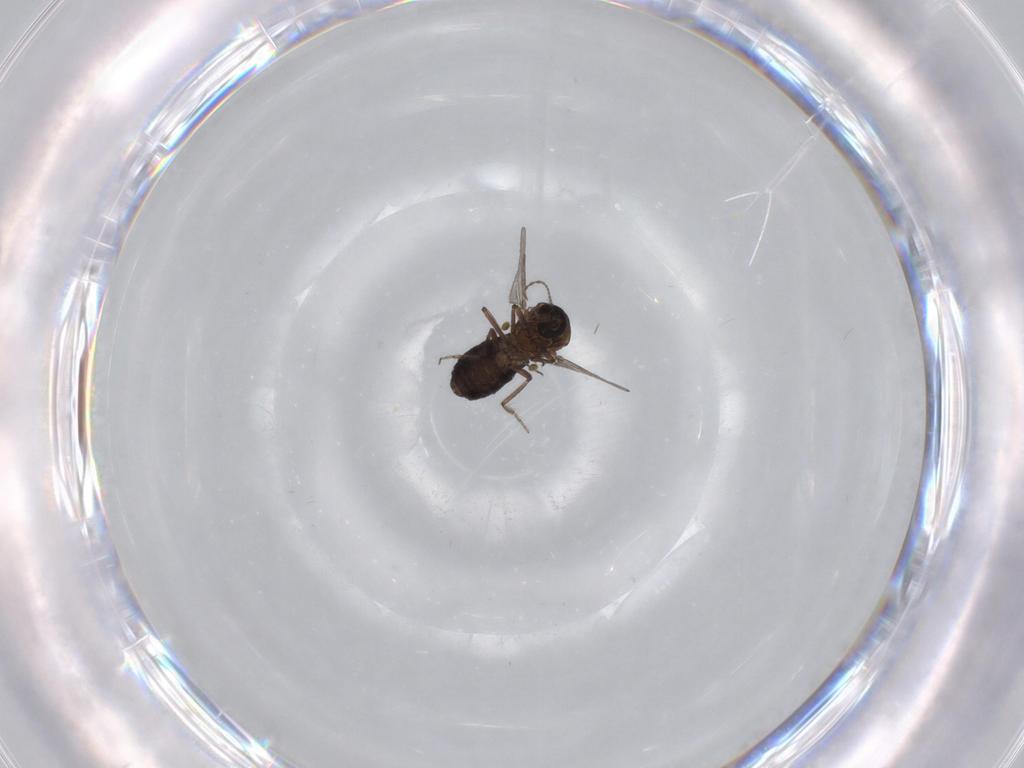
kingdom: Animalia
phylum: Arthropoda
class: Insecta
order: Diptera
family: Ceratopogonidae
